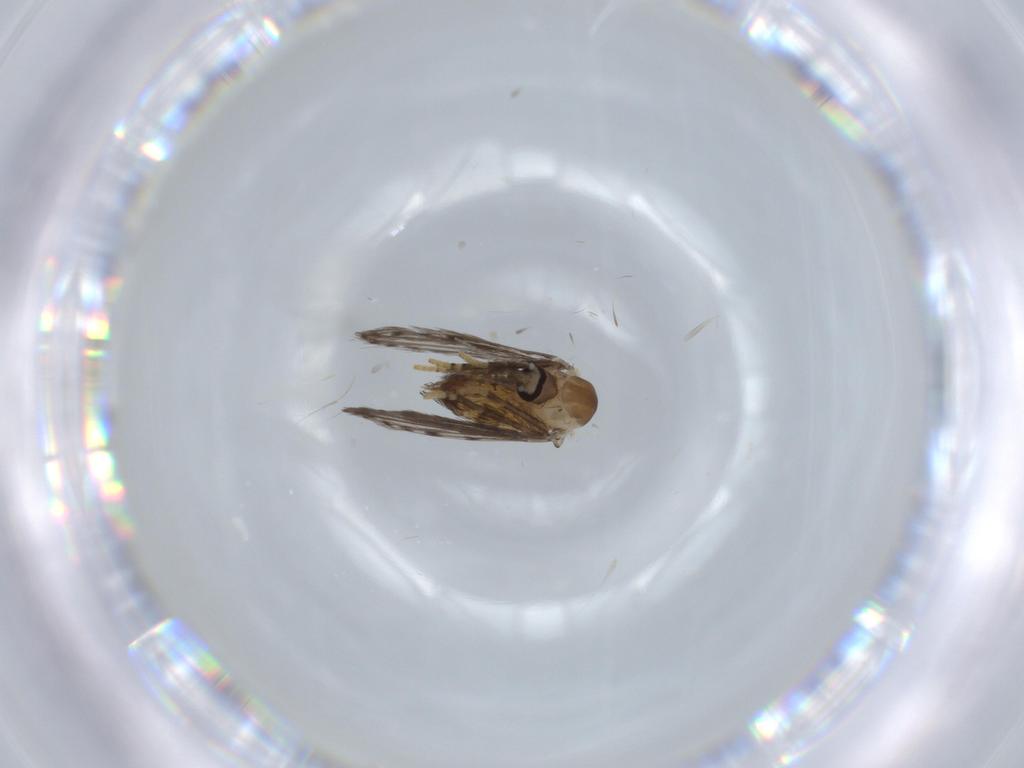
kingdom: Animalia
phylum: Arthropoda
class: Insecta
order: Diptera
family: Psychodidae
